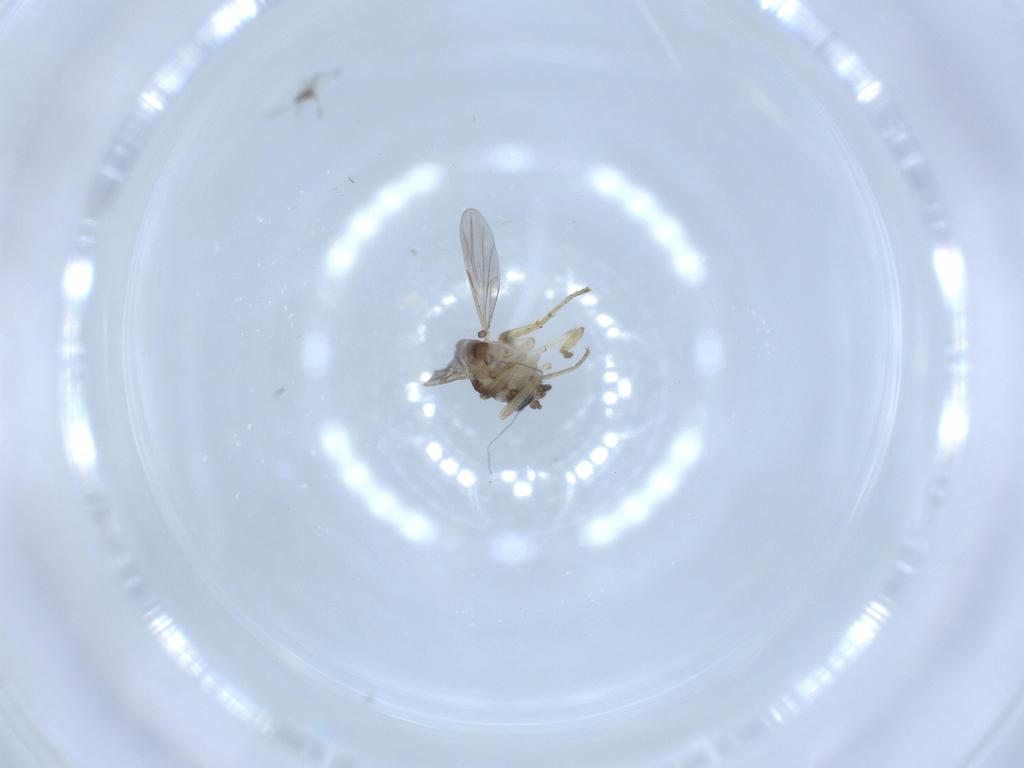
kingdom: Animalia
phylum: Arthropoda
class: Insecta
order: Diptera
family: Ceratopogonidae
